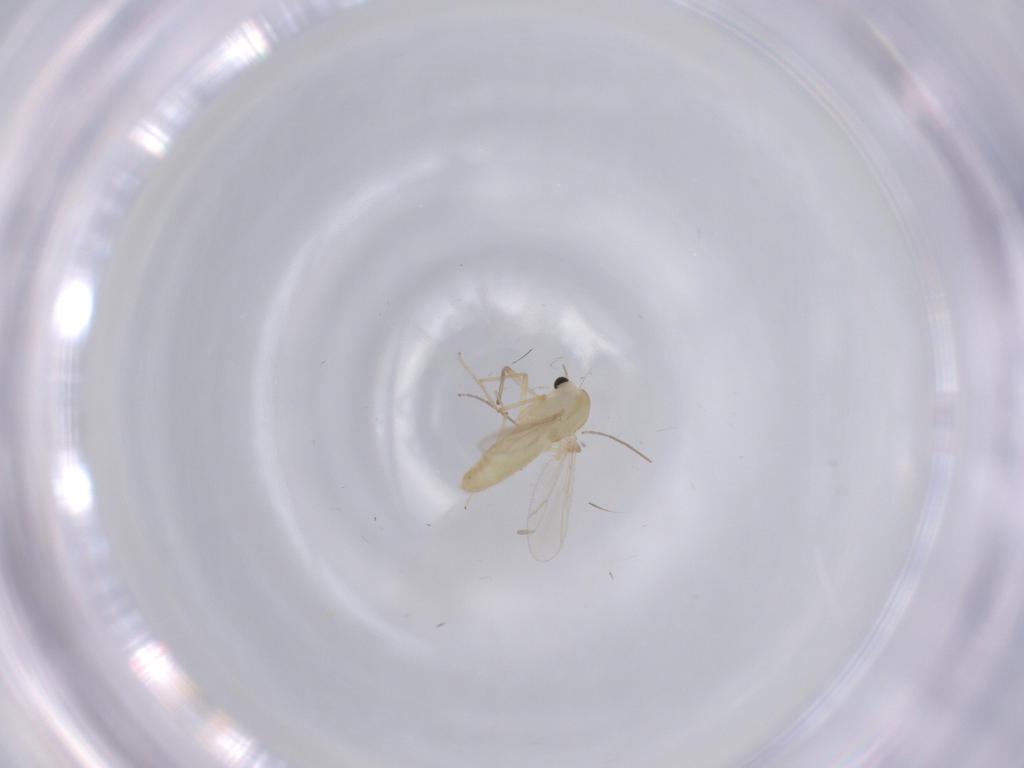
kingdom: Animalia
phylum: Arthropoda
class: Insecta
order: Diptera
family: Chironomidae
